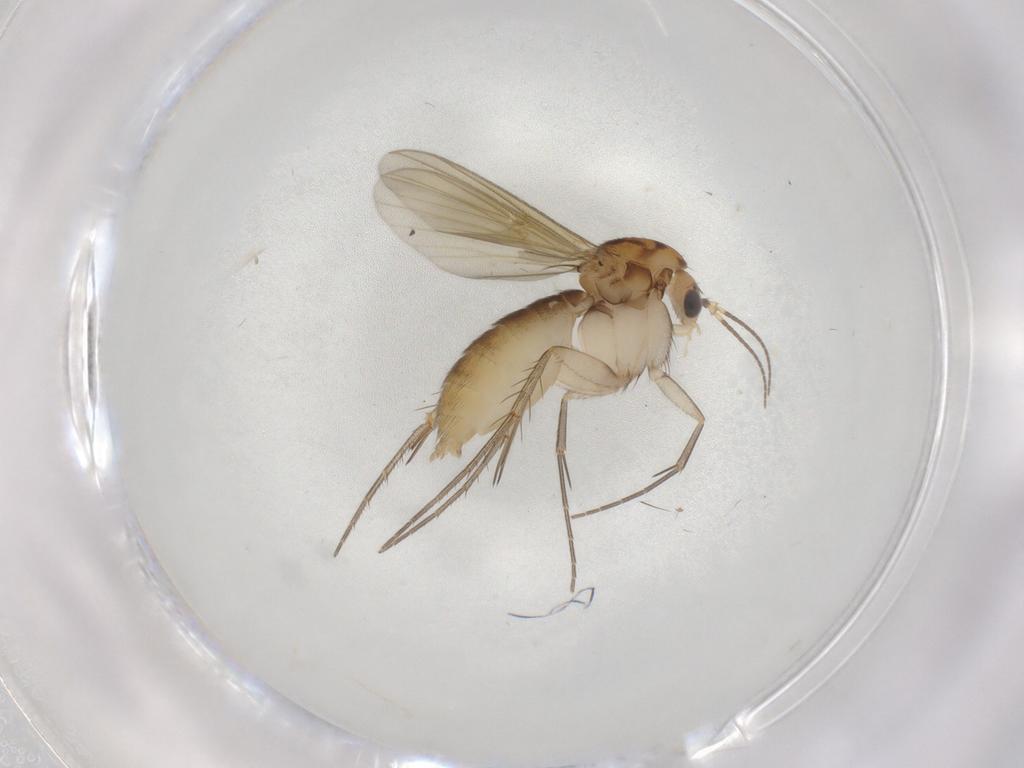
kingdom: Animalia
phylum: Arthropoda
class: Insecta
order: Diptera
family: Mycetophilidae
